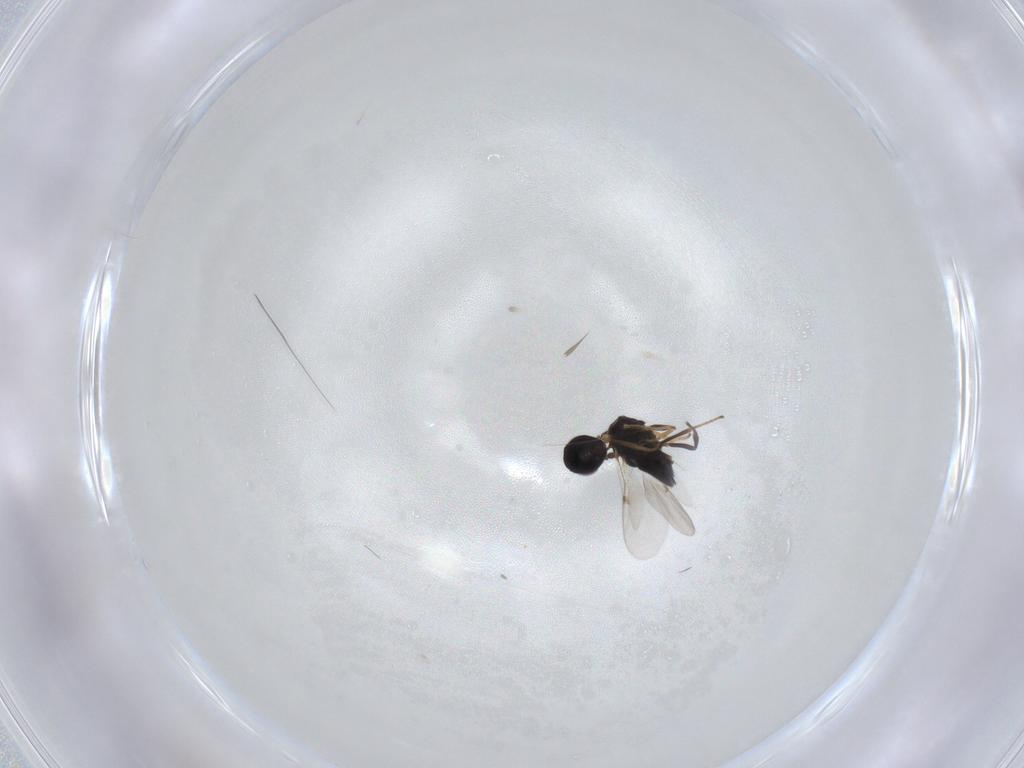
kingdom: Animalia
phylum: Arthropoda
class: Insecta
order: Hymenoptera
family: Encyrtidae
